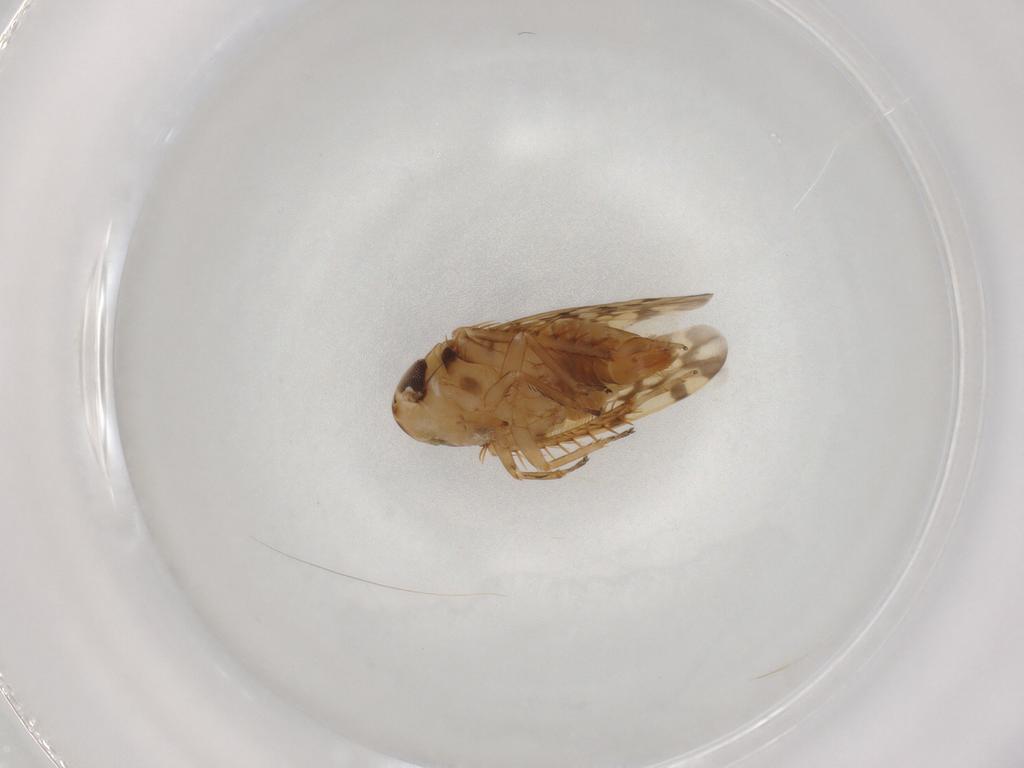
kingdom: Animalia
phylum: Arthropoda
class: Insecta
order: Hemiptera
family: Cicadellidae
